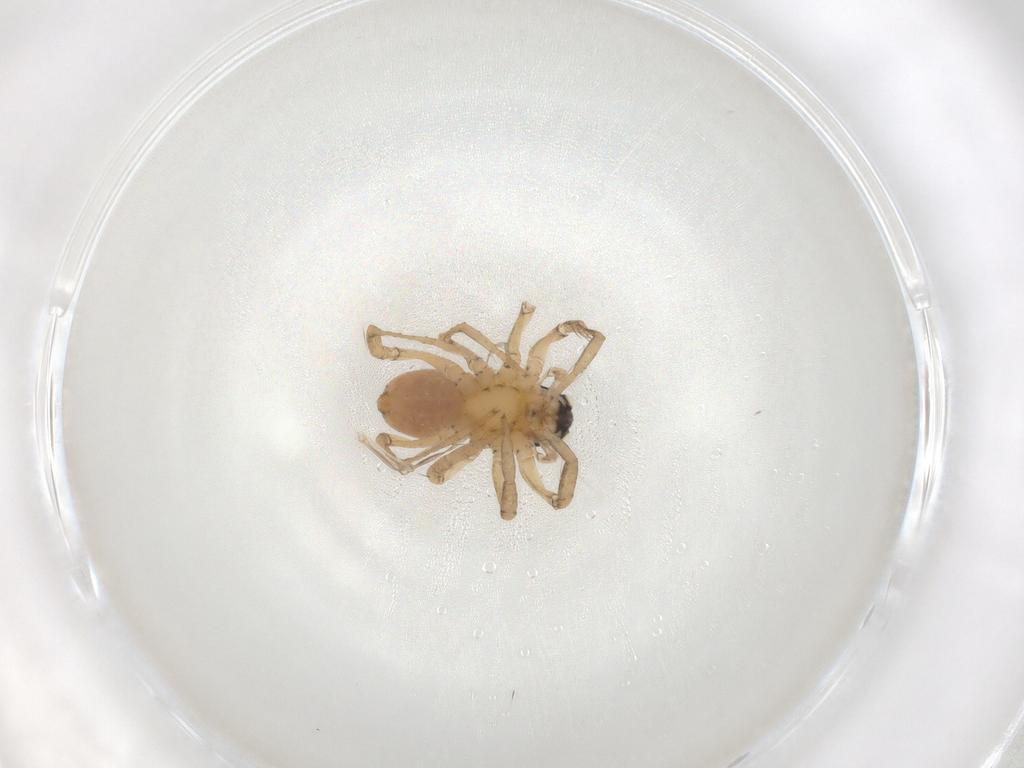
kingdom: Animalia
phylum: Arthropoda
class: Arachnida
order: Araneae
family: Lycosidae
